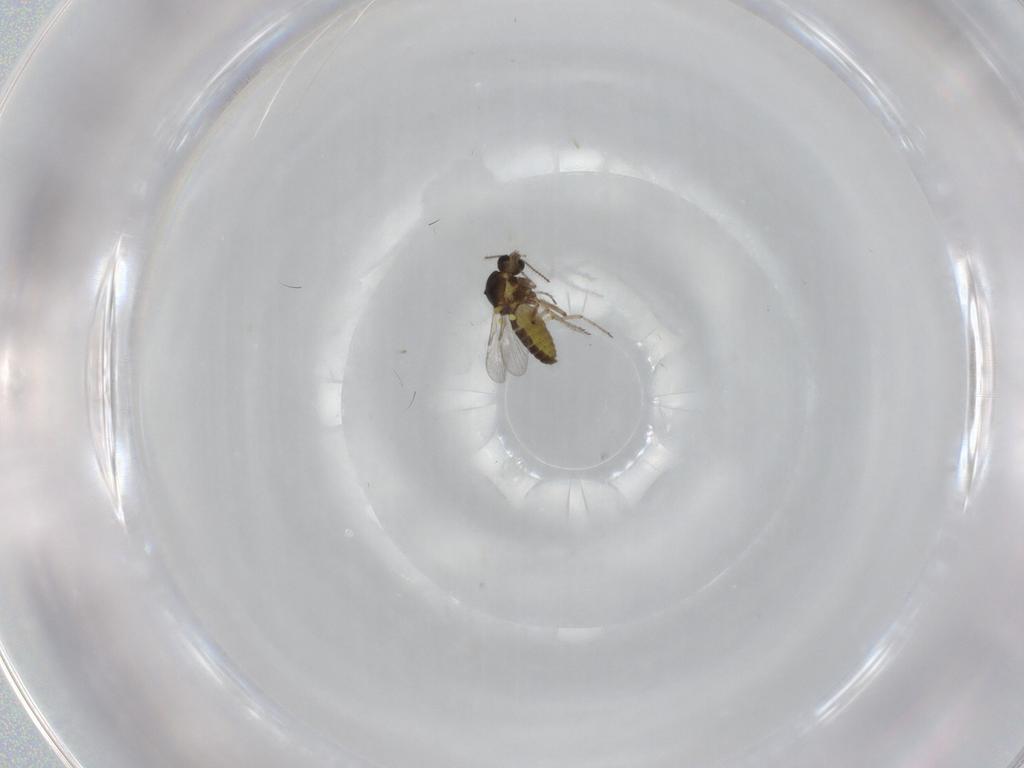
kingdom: Animalia
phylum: Arthropoda
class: Insecta
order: Diptera
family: Ceratopogonidae
